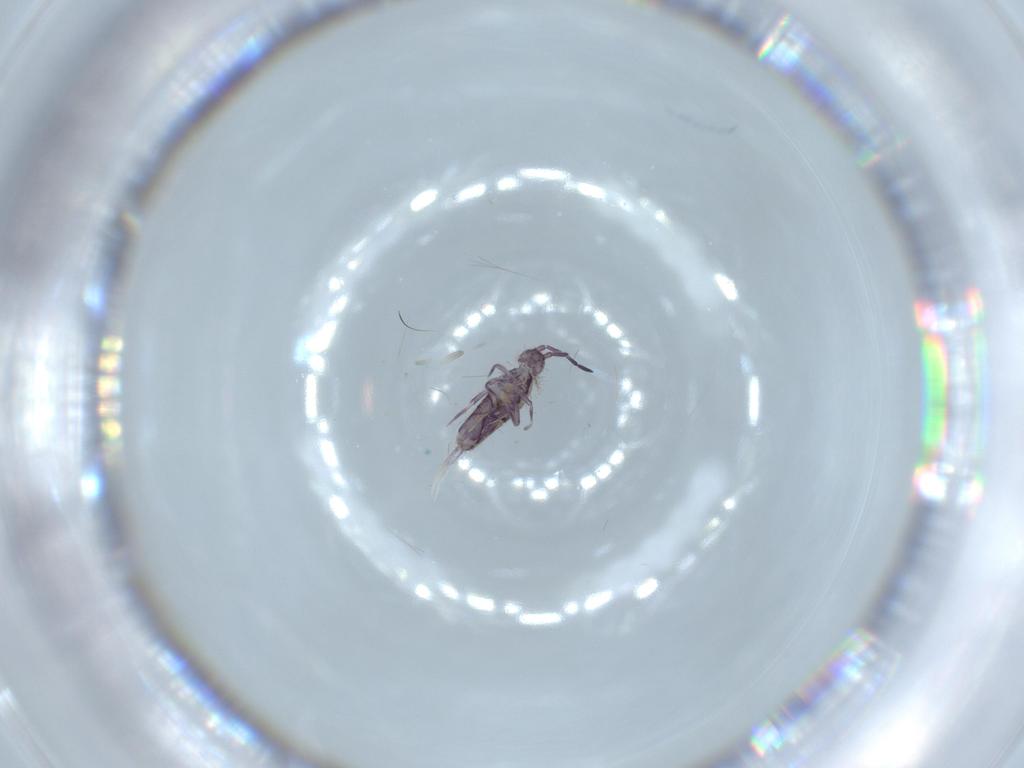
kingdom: Animalia
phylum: Arthropoda
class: Collembola
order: Entomobryomorpha
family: Entomobryidae
